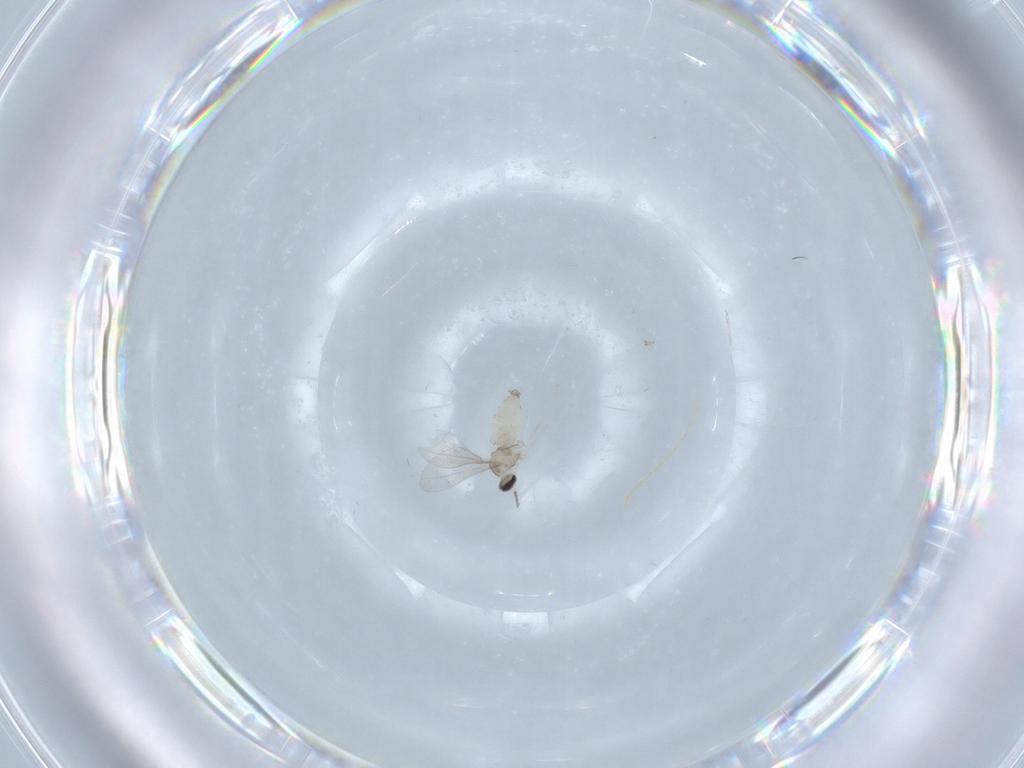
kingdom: Animalia
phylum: Arthropoda
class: Insecta
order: Diptera
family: Cecidomyiidae
